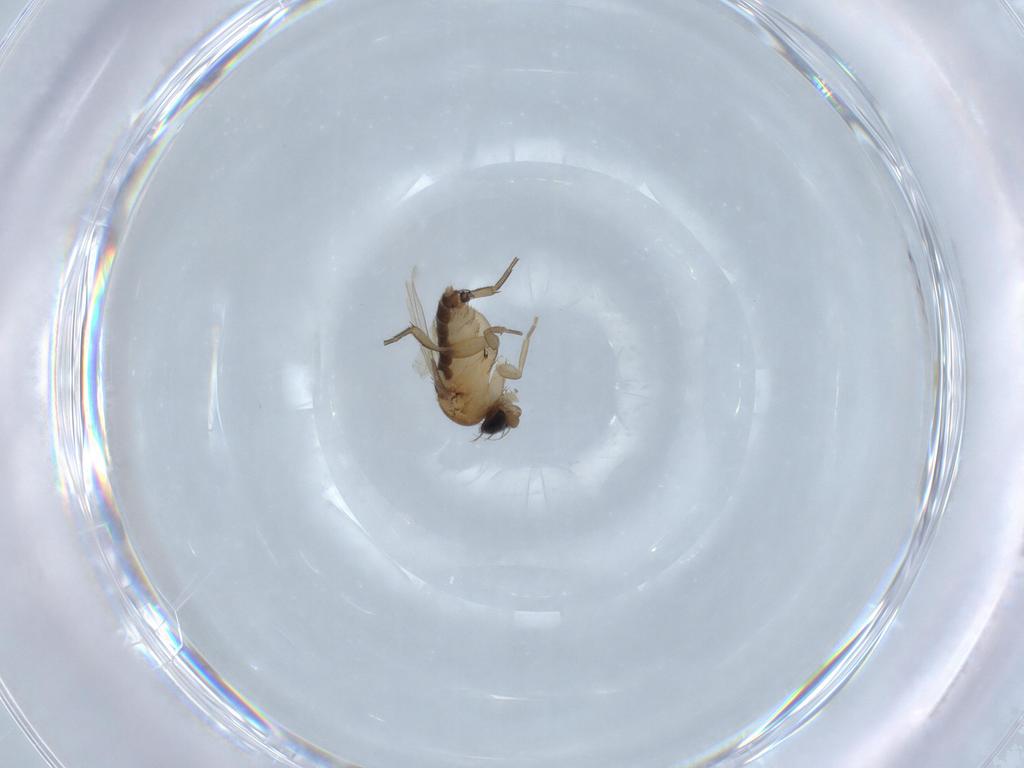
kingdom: Animalia
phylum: Arthropoda
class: Insecta
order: Diptera
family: Phoridae
